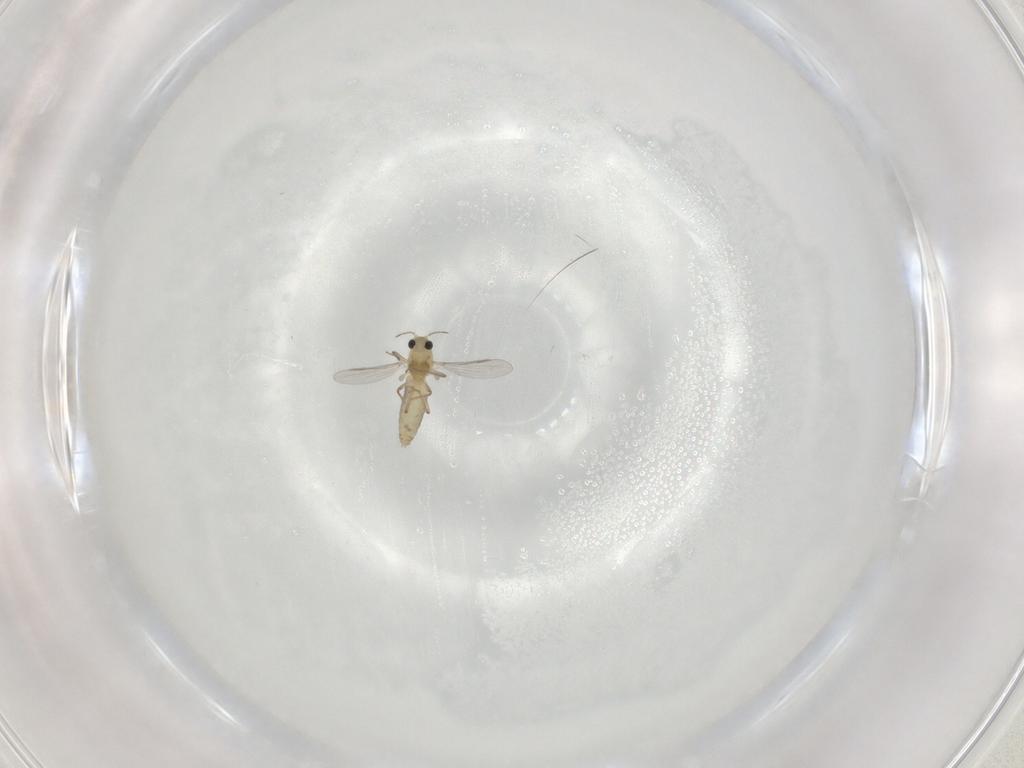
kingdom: Animalia
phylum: Arthropoda
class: Insecta
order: Diptera
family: Chironomidae
